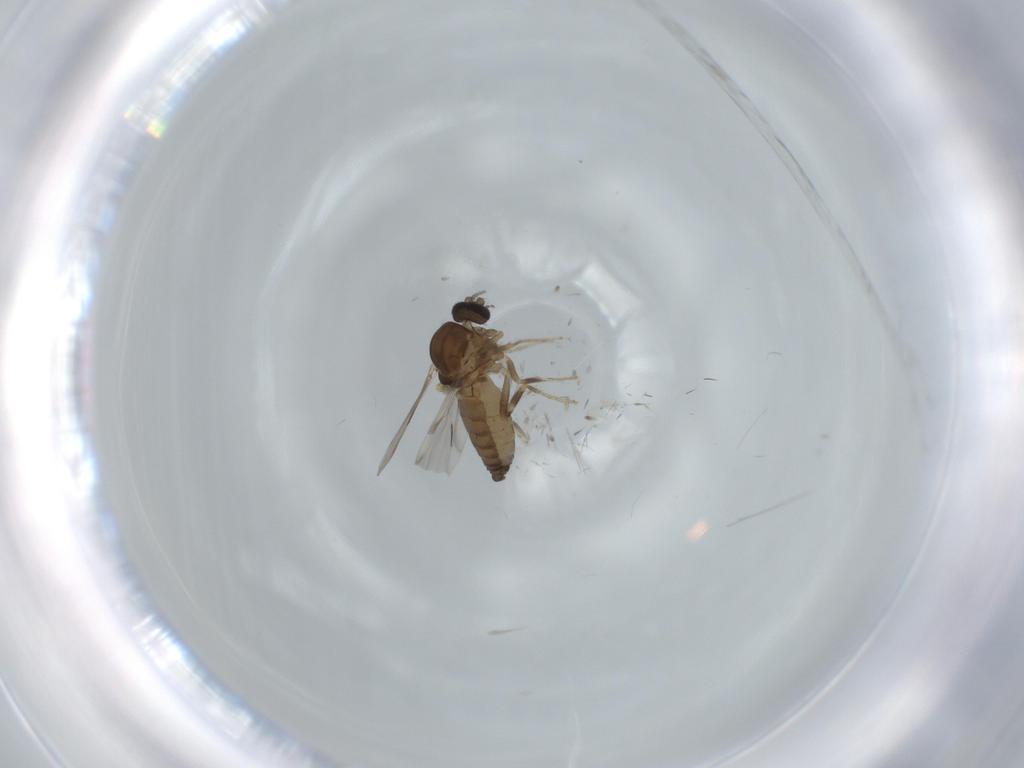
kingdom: Animalia
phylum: Arthropoda
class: Insecta
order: Diptera
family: Ceratopogonidae
